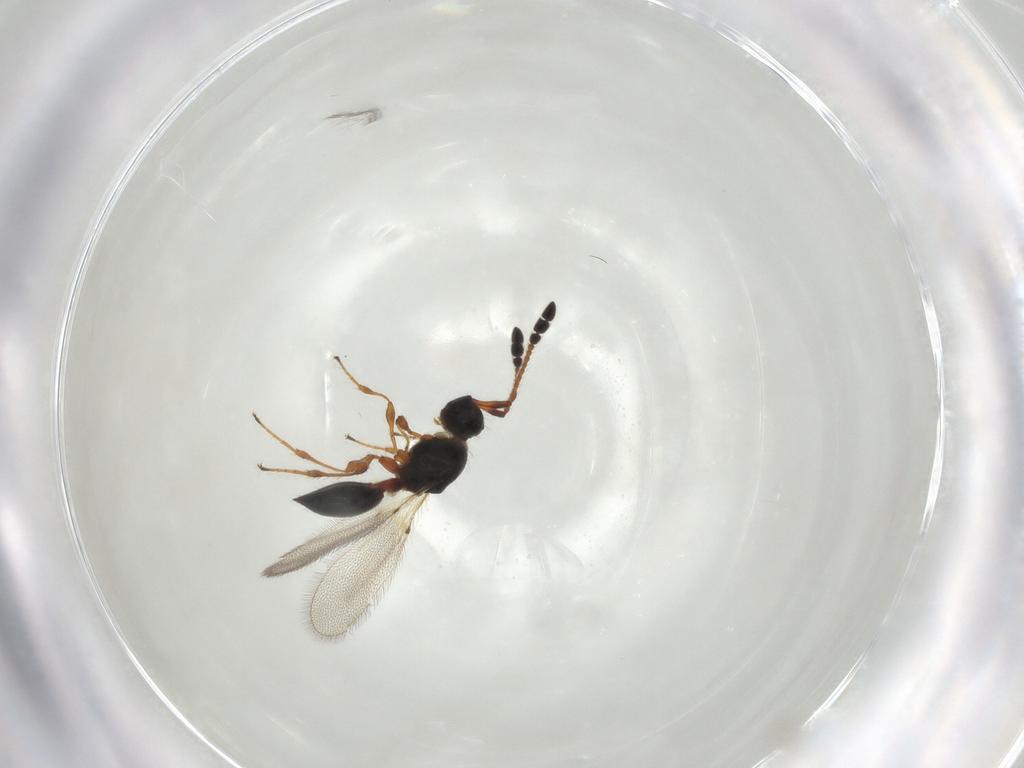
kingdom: Animalia
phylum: Arthropoda
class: Insecta
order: Hymenoptera
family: Diapriidae
